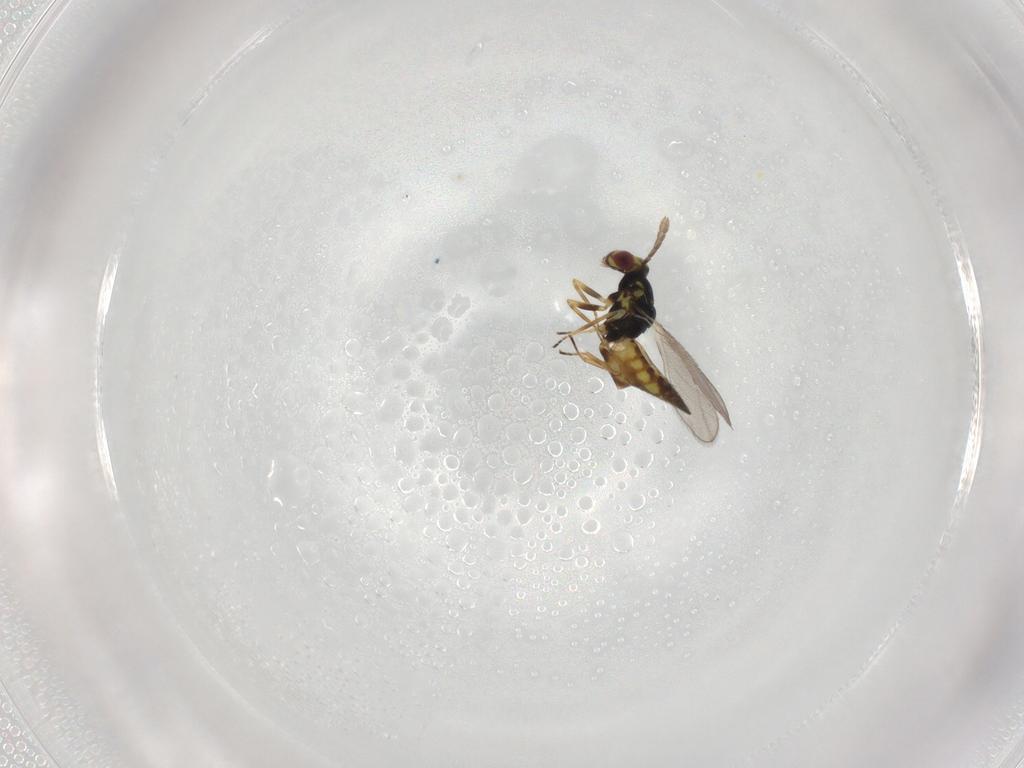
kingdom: Animalia
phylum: Arthropoda
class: Insecta
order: Hymenoptera
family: Eulophidae
